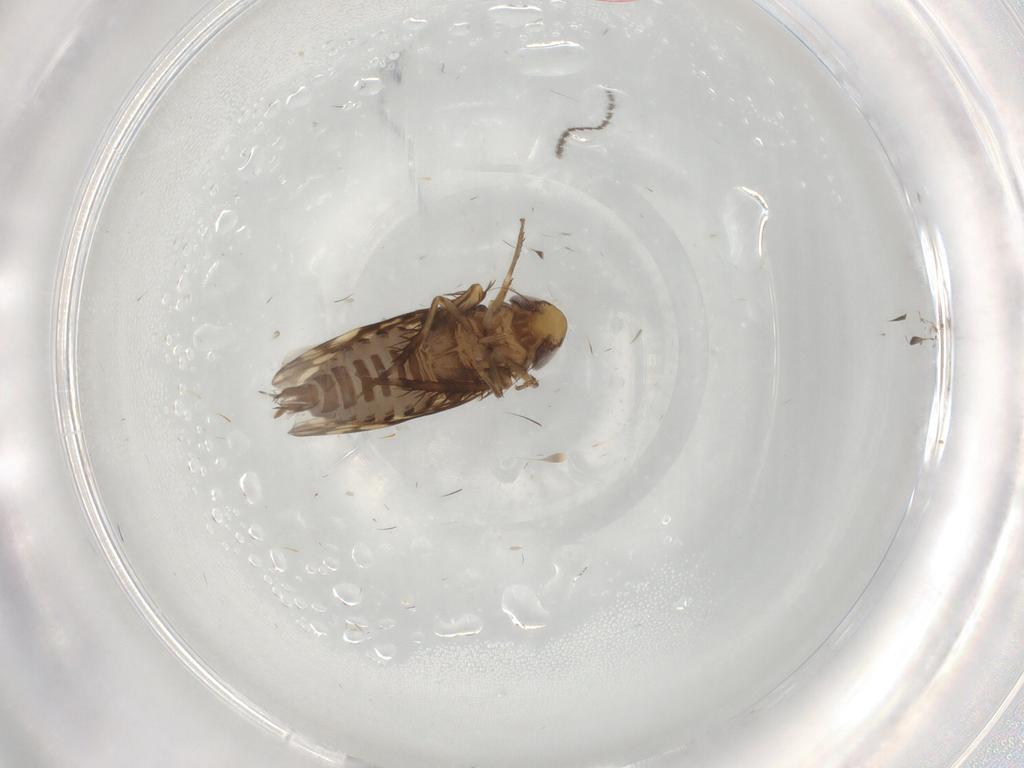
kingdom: Animalia
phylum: Arthropoda
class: Insecta
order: Hemiptera
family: Cicadellidae
